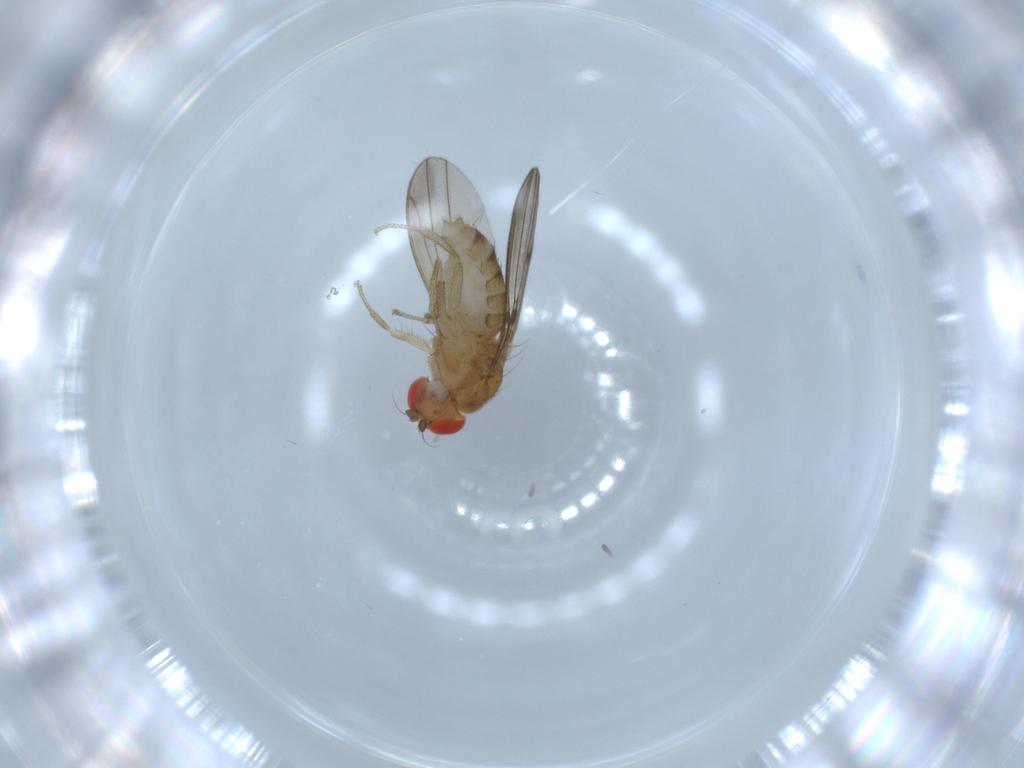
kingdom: Animalia
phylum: Arthropoda
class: Insecta
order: Diptera
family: Drosophilidae
